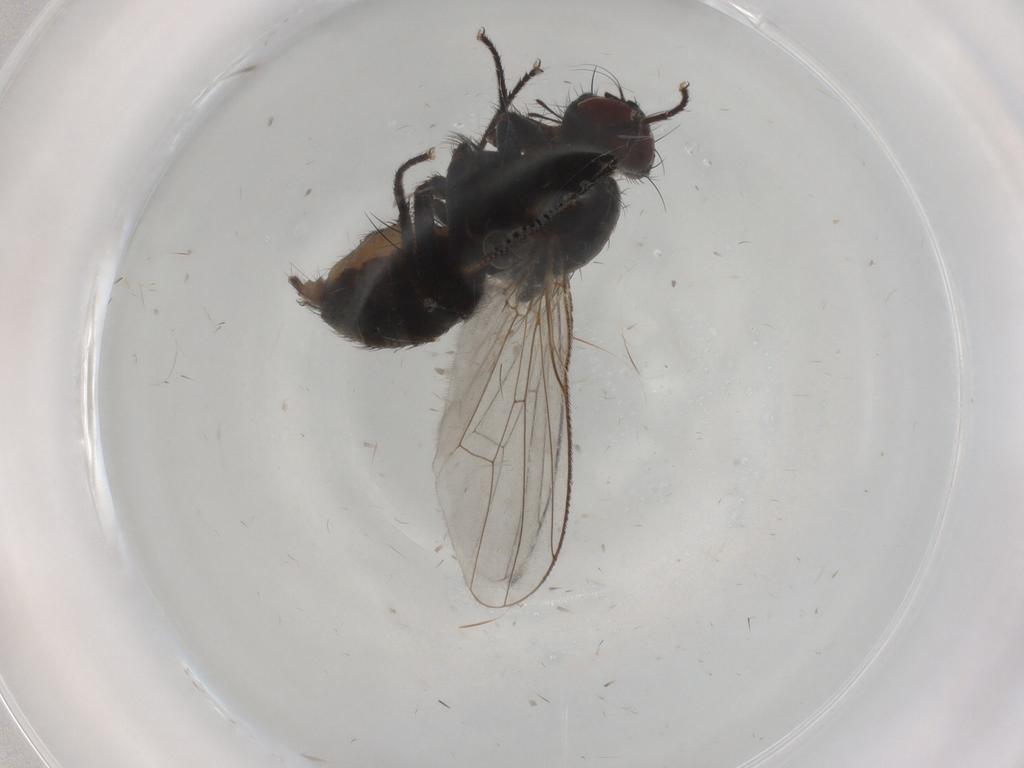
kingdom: Animalia
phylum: Arthropoda
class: Insecta
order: Diptera
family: Muscidae
